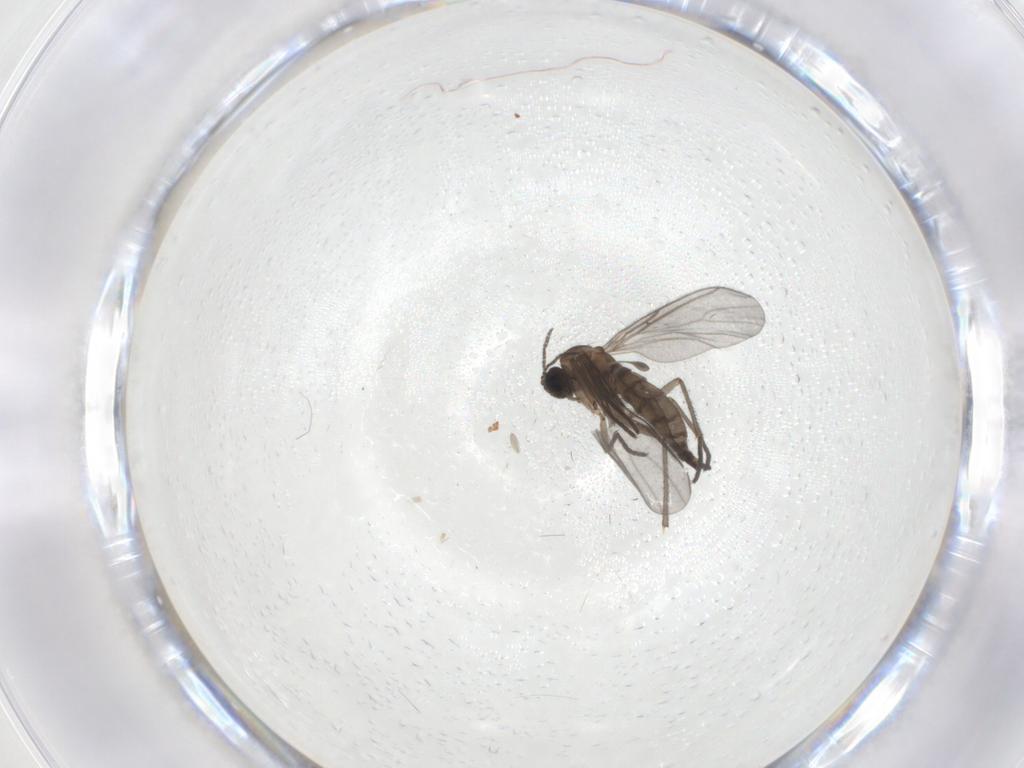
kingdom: Animalia
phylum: Arthropoda
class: Insecta
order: Diptera
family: Sciaridae
